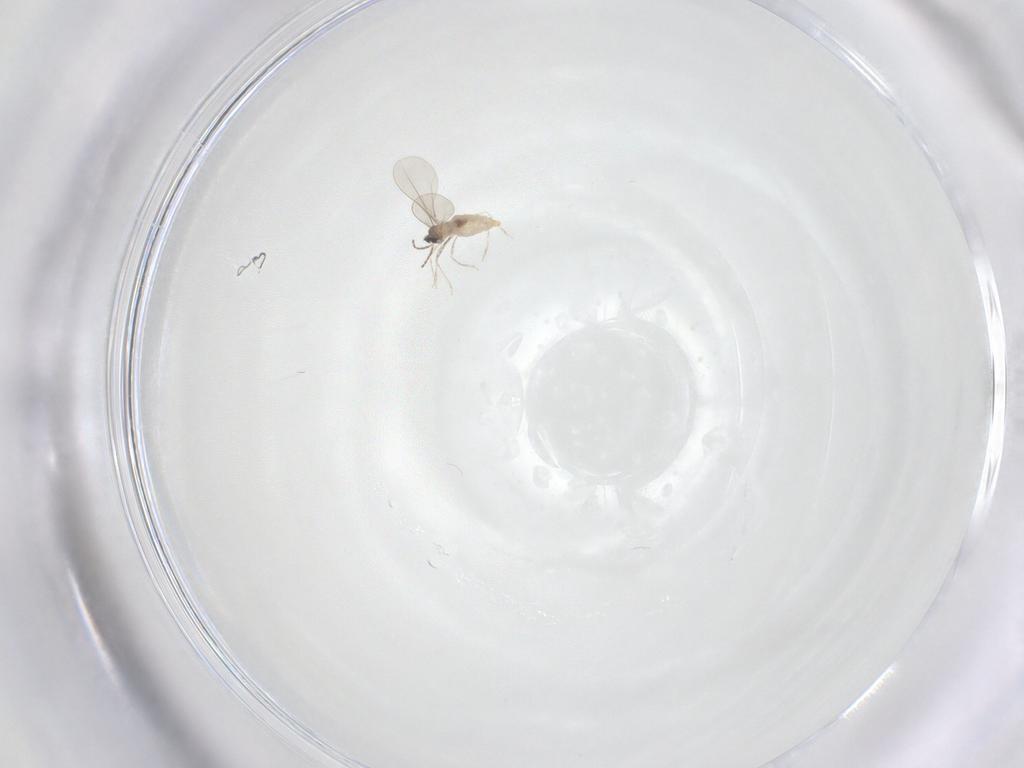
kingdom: Animalia
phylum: Arthropoda
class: Insecta
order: Diptera
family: Cecidomyiidae
